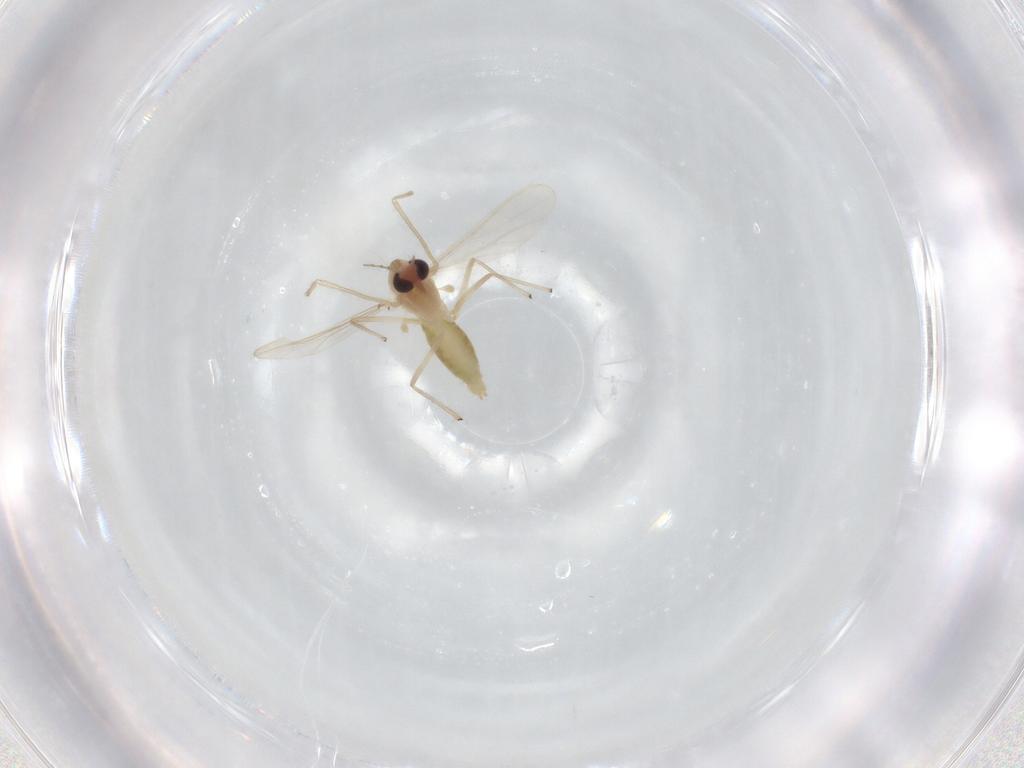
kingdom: Animalia
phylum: Arthropoda
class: Insecta
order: Diptera
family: Chironomidae
